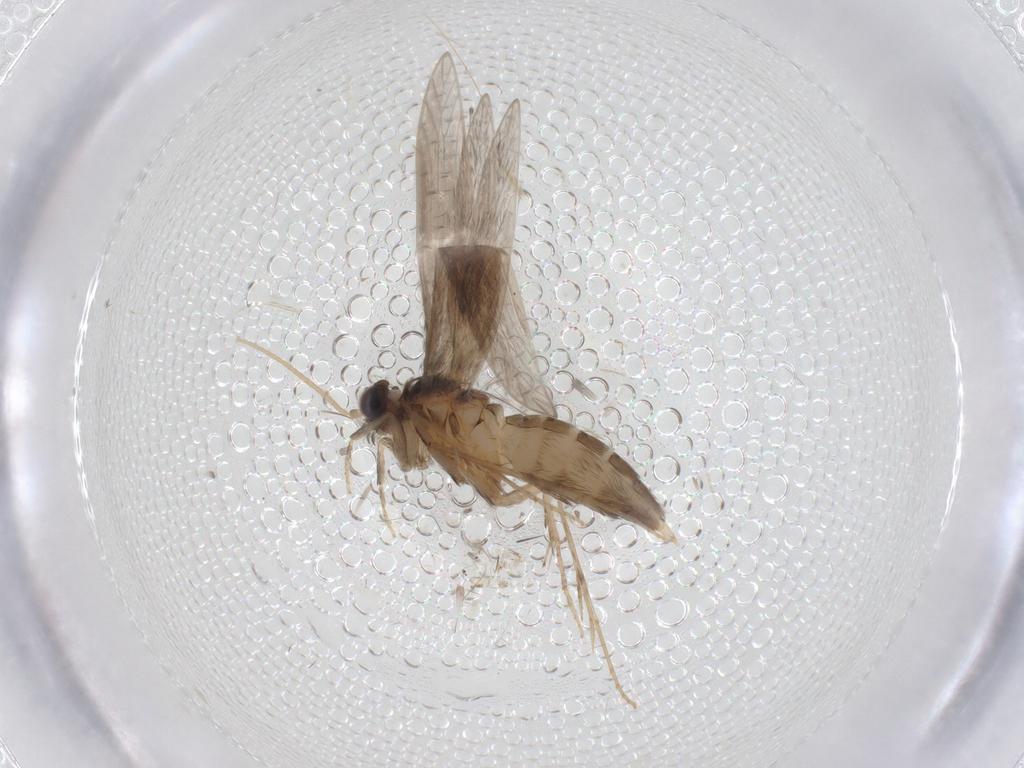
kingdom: Animalia
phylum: Arthropoda
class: Insecta
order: Trichoptera
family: Hydroptilidae
